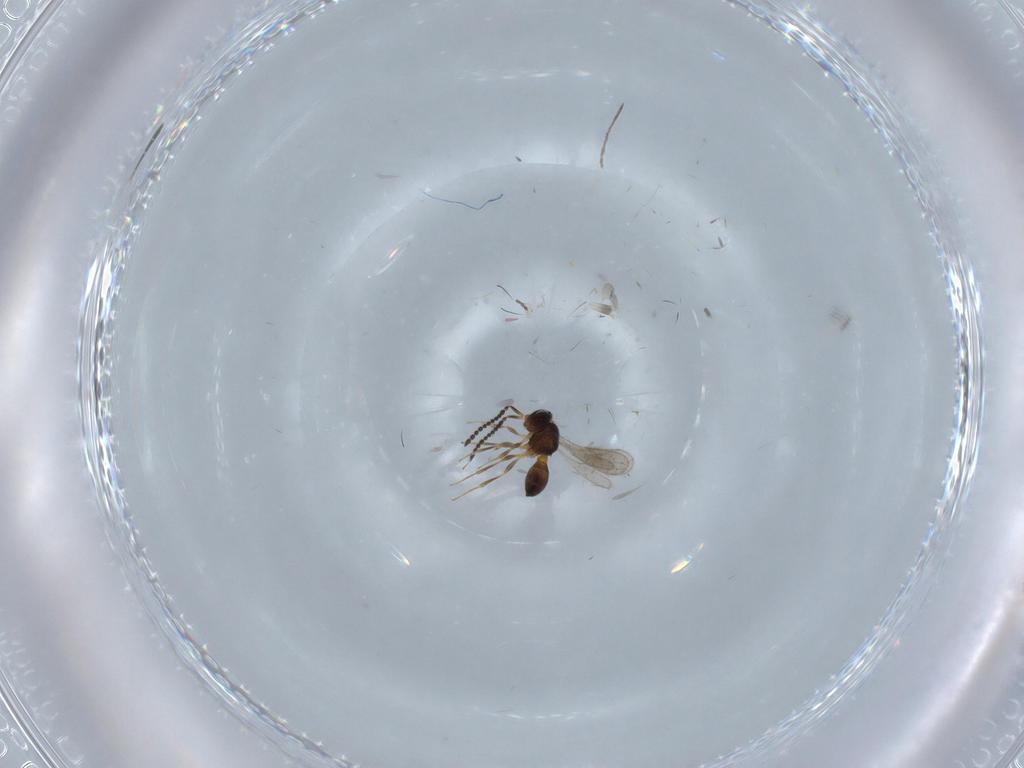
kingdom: Animalia
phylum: Arthropoda
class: Insecta
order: Hymenoptera
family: Scelionidae
